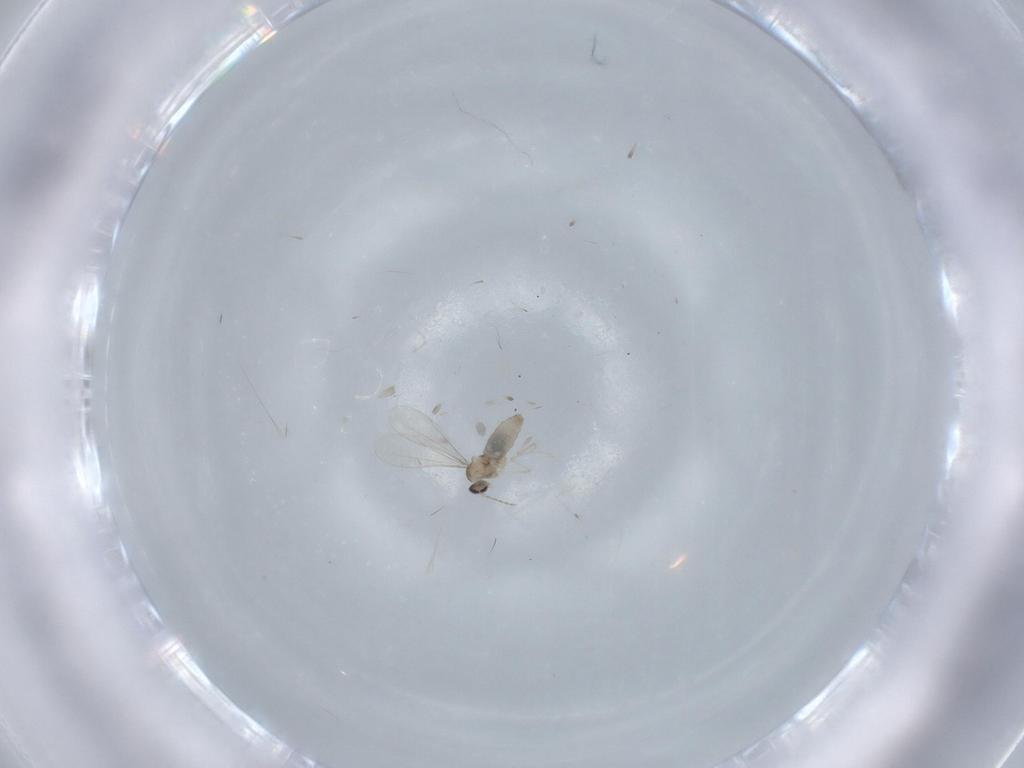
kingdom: Animalia
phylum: Arthropoda
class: Insecta
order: Diptera
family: Cecidomyiidae
